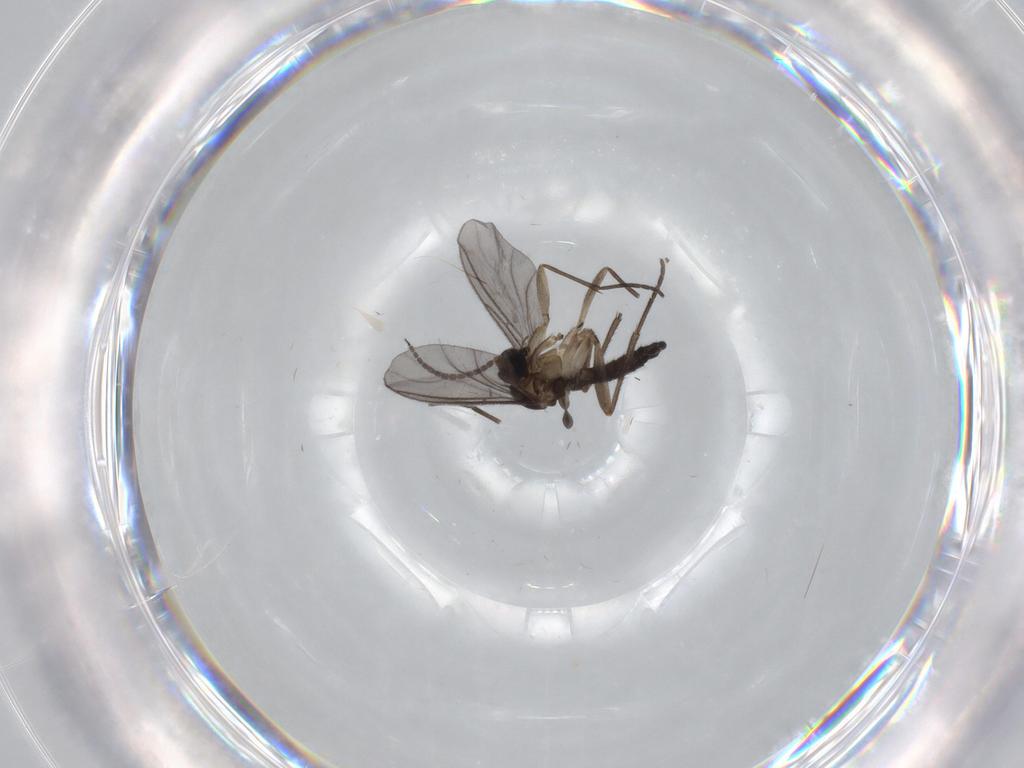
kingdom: Animalia
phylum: Arthropoda
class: Insecta
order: Diptera
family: Sciaridae
